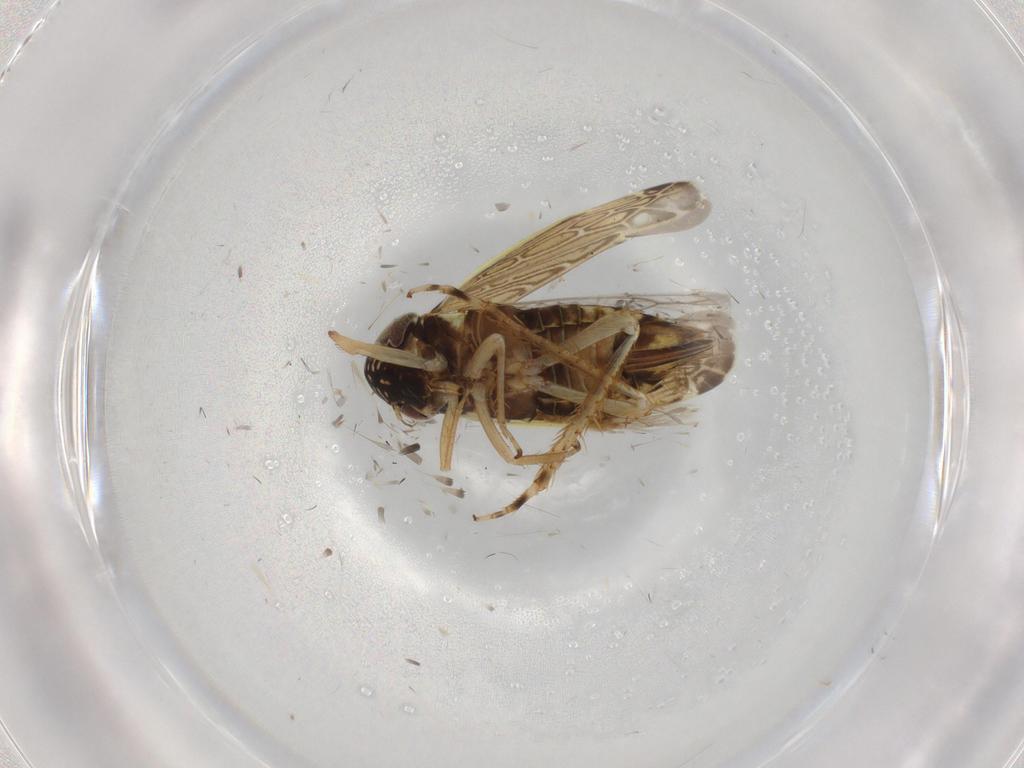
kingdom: Animalia
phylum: Arthropoda
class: Insecta
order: Hemiptera
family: Cicadellidae
